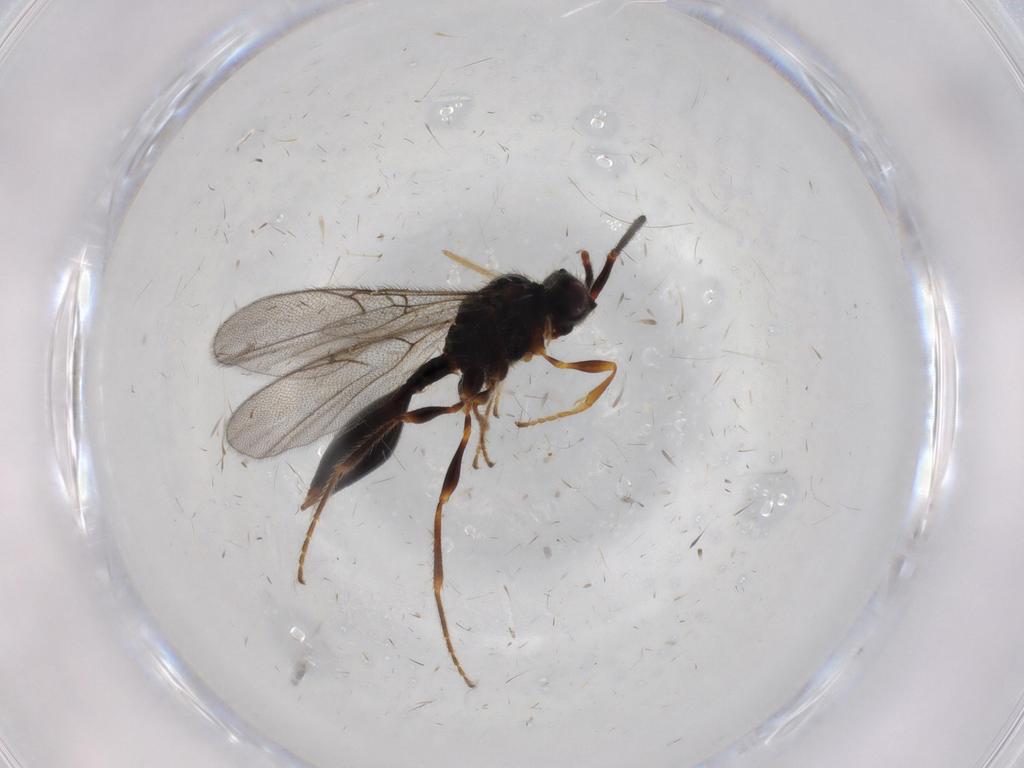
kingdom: Animalia
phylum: Arthropoda
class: Insecta
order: Hymenoptera
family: Diapriidae
